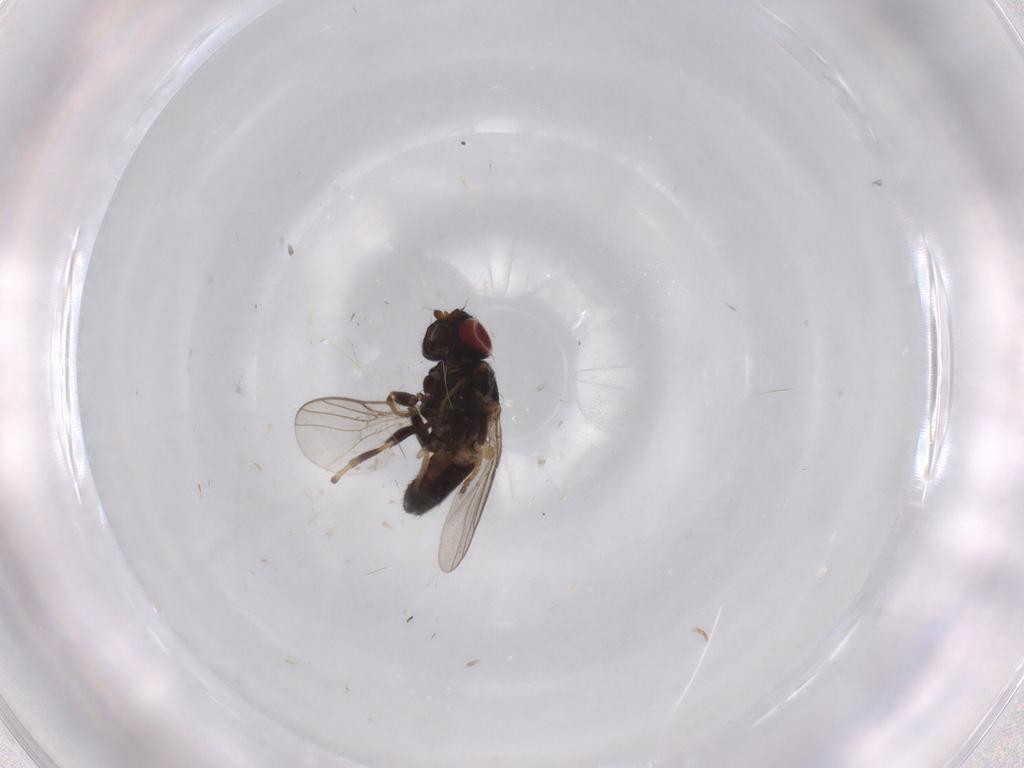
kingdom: Animalia
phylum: Arthropoda
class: Insecta
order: Diptera
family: Chloropidae
